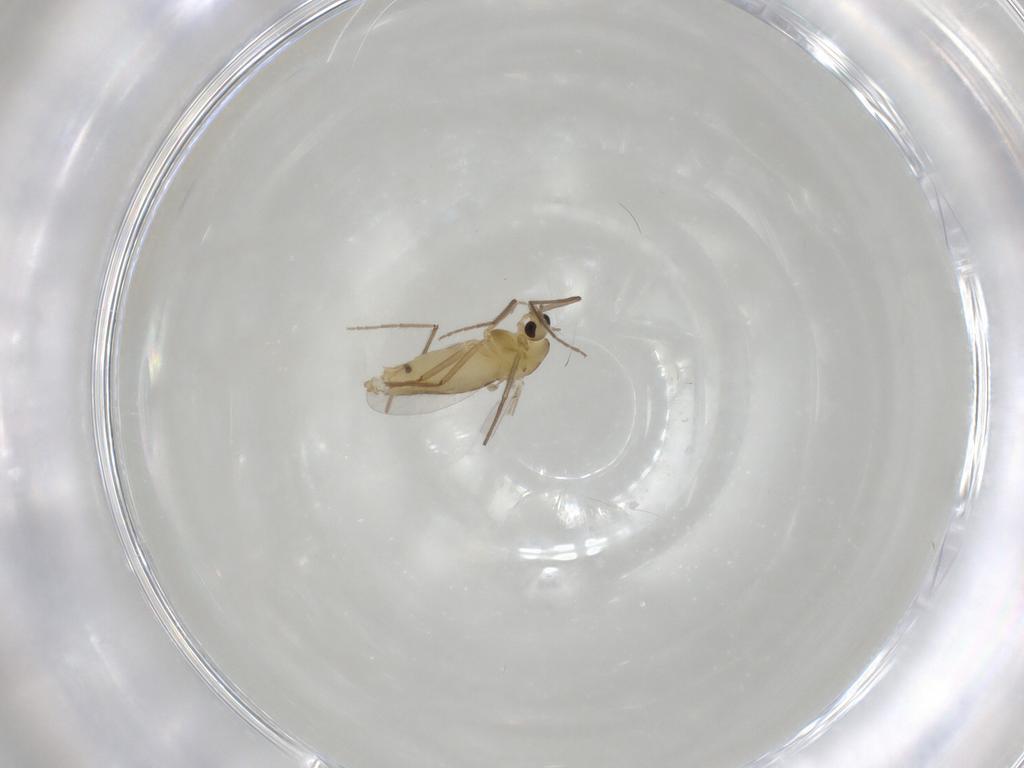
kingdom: Animalia
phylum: Arthropoda
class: Insecta
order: Diptera
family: Chironomidae
